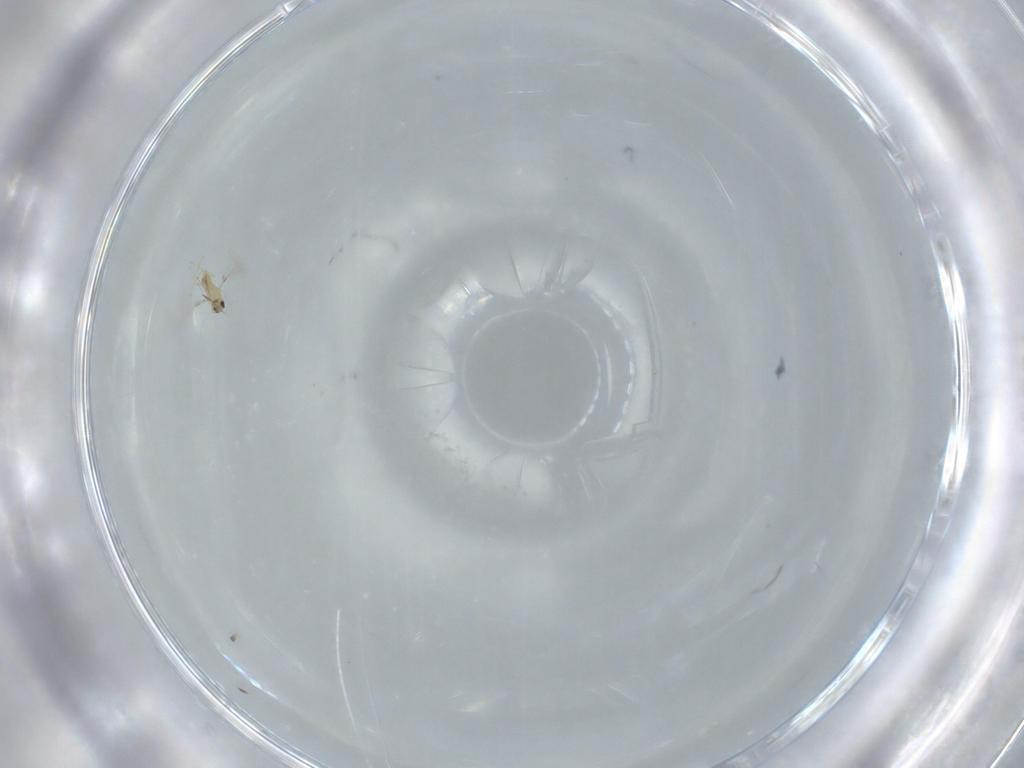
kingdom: Animalia
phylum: Arthropoda
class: Insecta
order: Hymenoptera
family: Mymaridae
